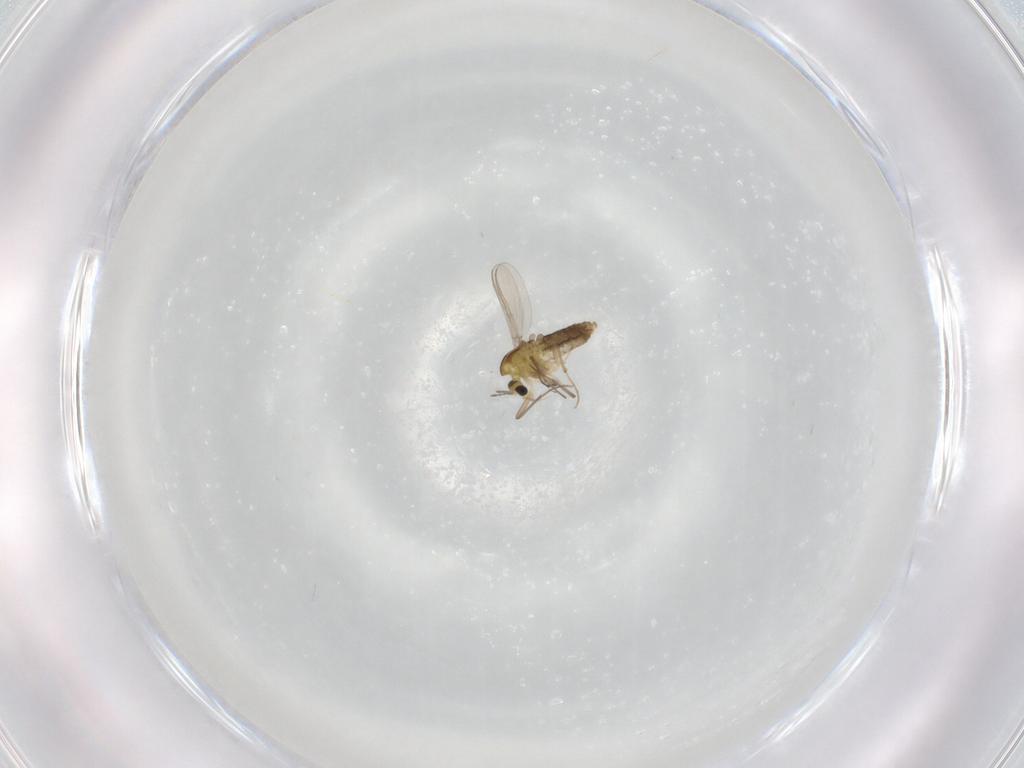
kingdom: Animalia
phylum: Arthropoda
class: Insecta
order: Diptera
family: Chironomidae
